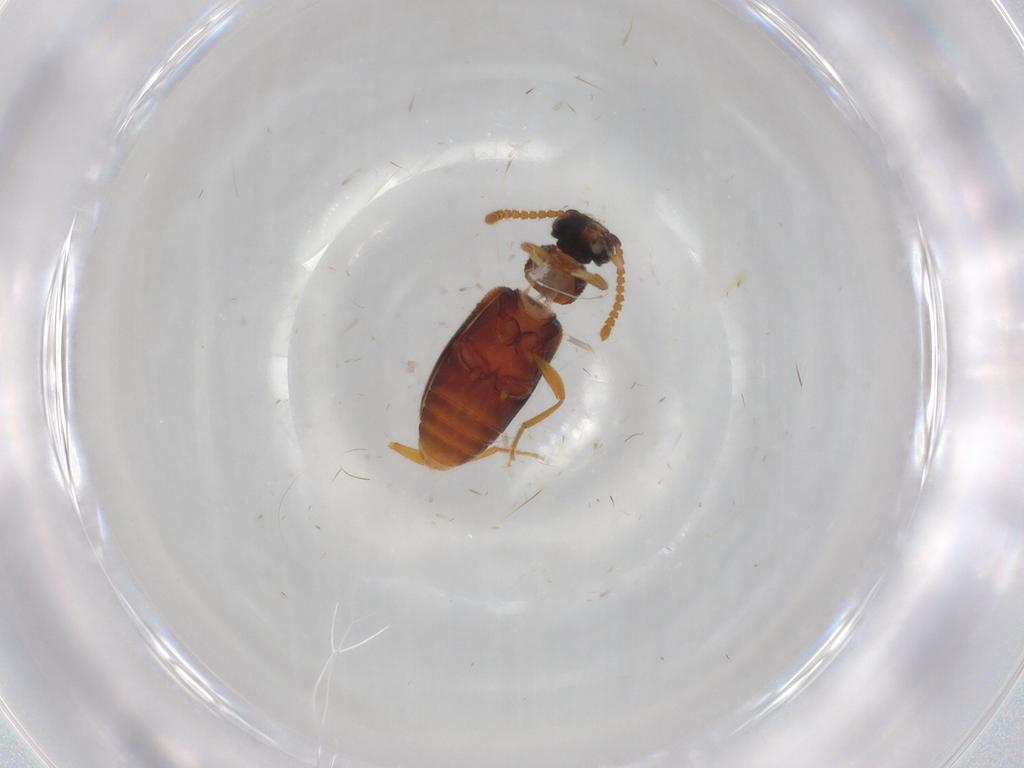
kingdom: Animalia
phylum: Arthropoda
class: Insecta
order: Coleoptera
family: Aderidae
